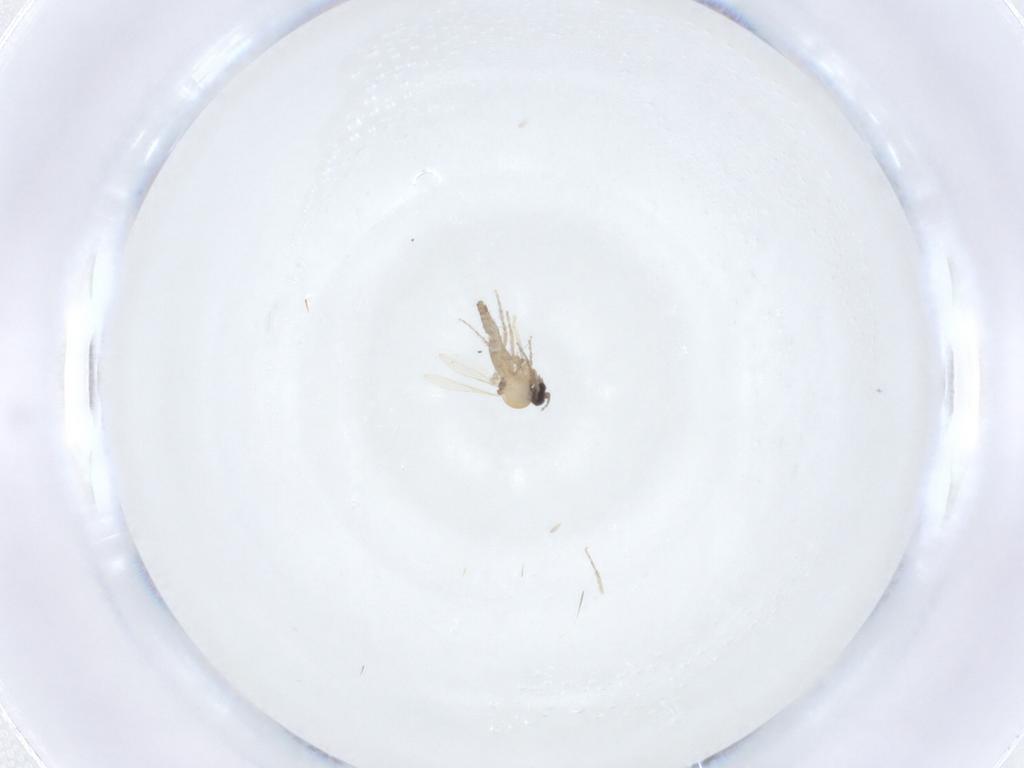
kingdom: Animalia
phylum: Arthropoda
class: Insecta
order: Diptera
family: Ceratopogonidae
